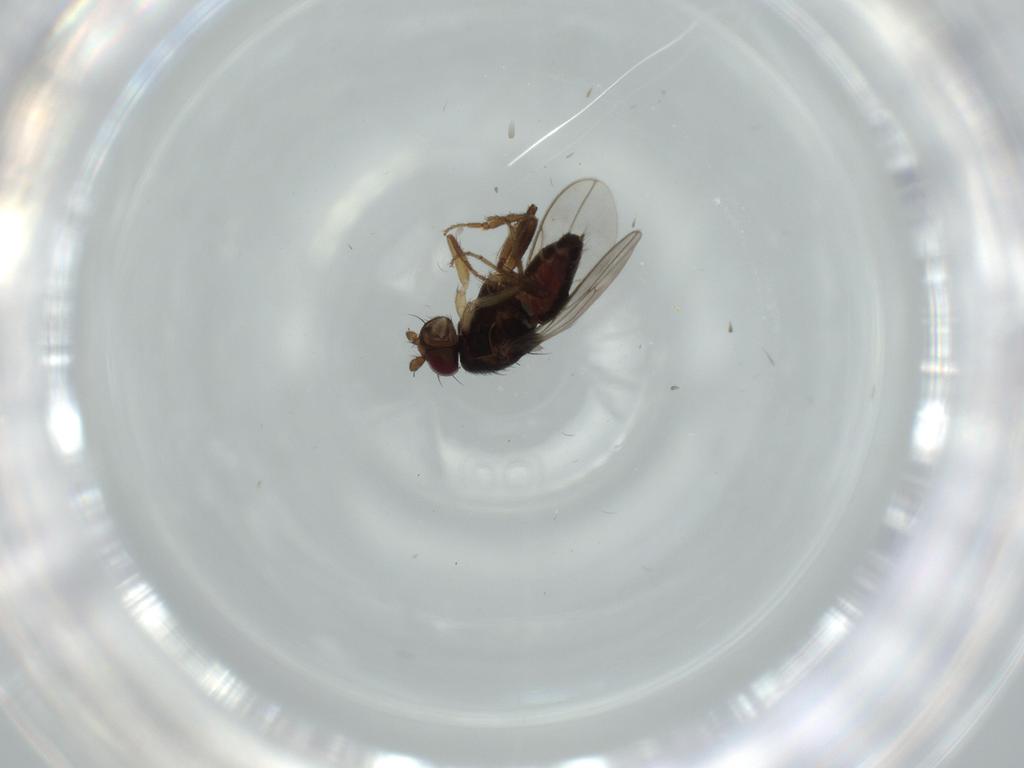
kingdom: Animalia
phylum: Arthropoda
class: Insecta
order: Diptera
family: Sphaeroceridae
